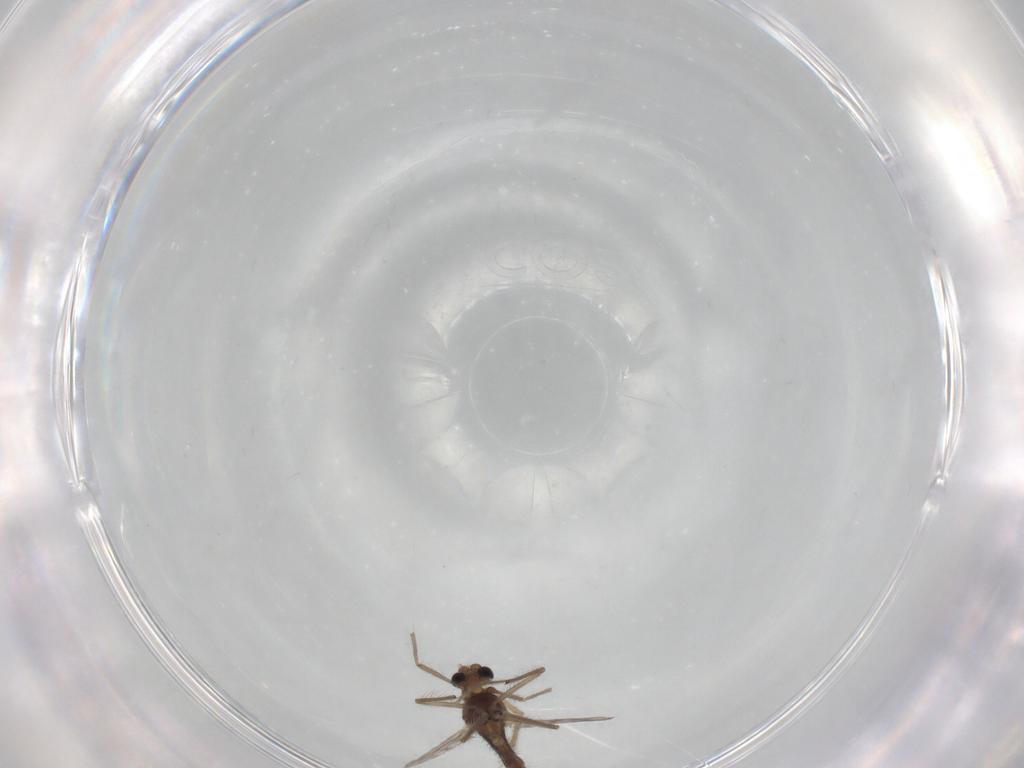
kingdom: Animalia
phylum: Arthropoda
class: Insecta
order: Diptera
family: Chironomidae
